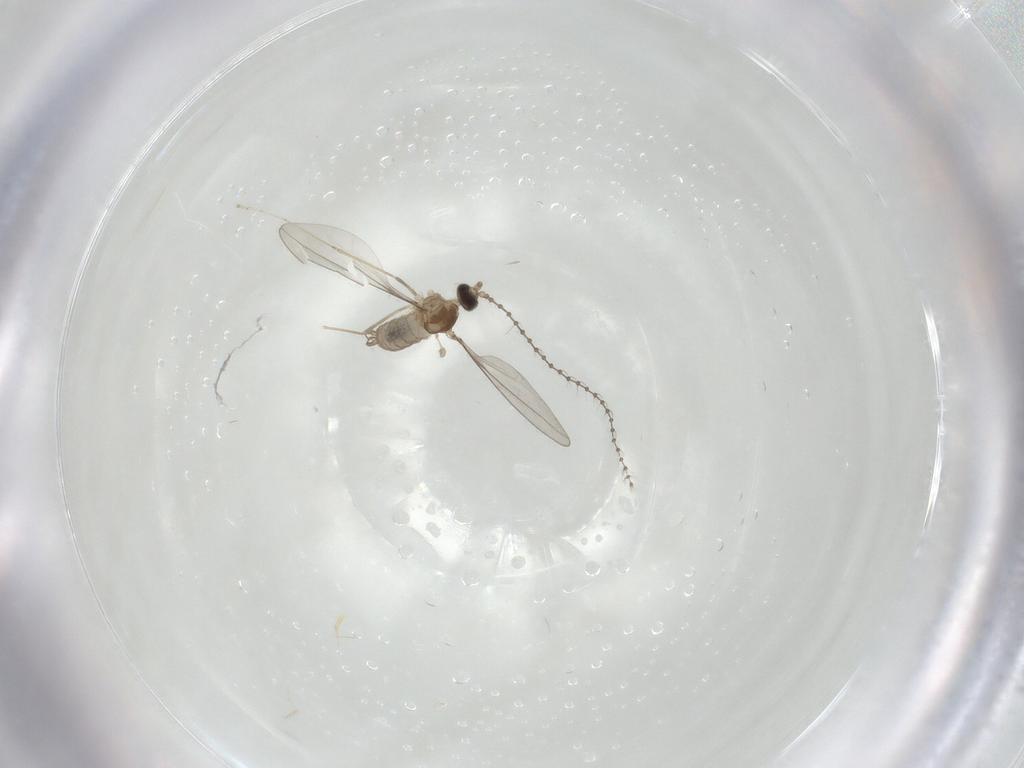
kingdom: Animalia
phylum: Arthropoda
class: Insecta
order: Diptera
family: Cecidomyiidae
